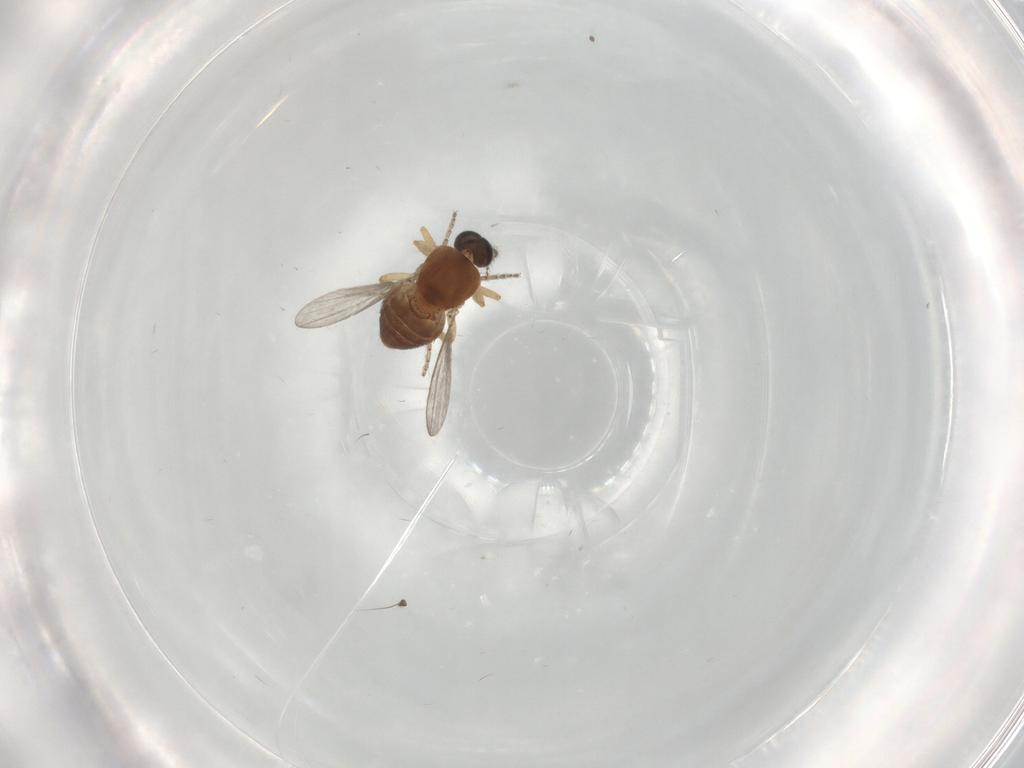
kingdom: Animalia
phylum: Arthropoda
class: Insecta
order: Diptera
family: Ceratopogonidae
